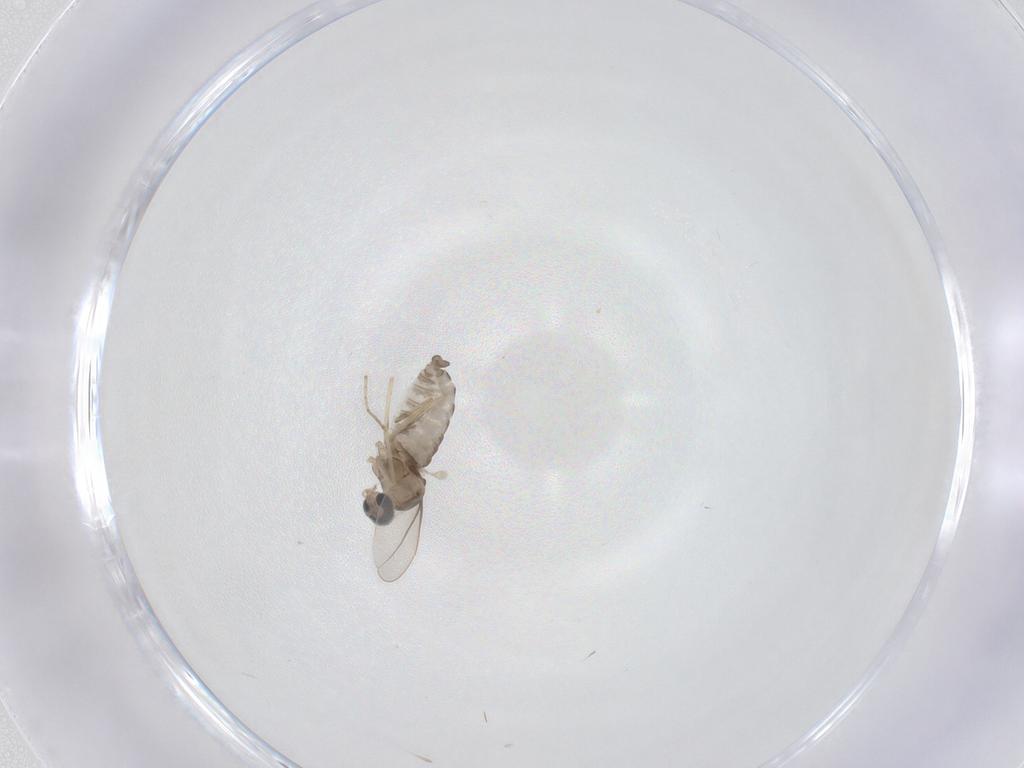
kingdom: Animalia
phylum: Arthropoda
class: Insecta
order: Diptera
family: Cecidomyiidae
